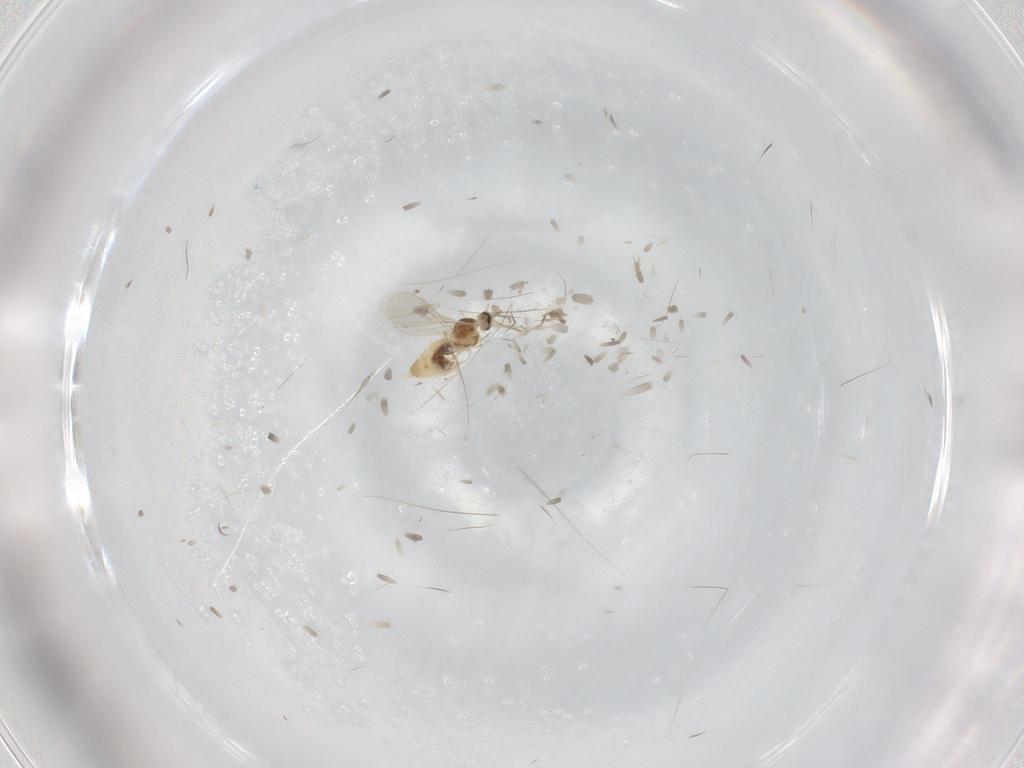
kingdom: Animalia
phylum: Arthropoda
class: Insecta
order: Diptera
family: Cecidomyiidae
